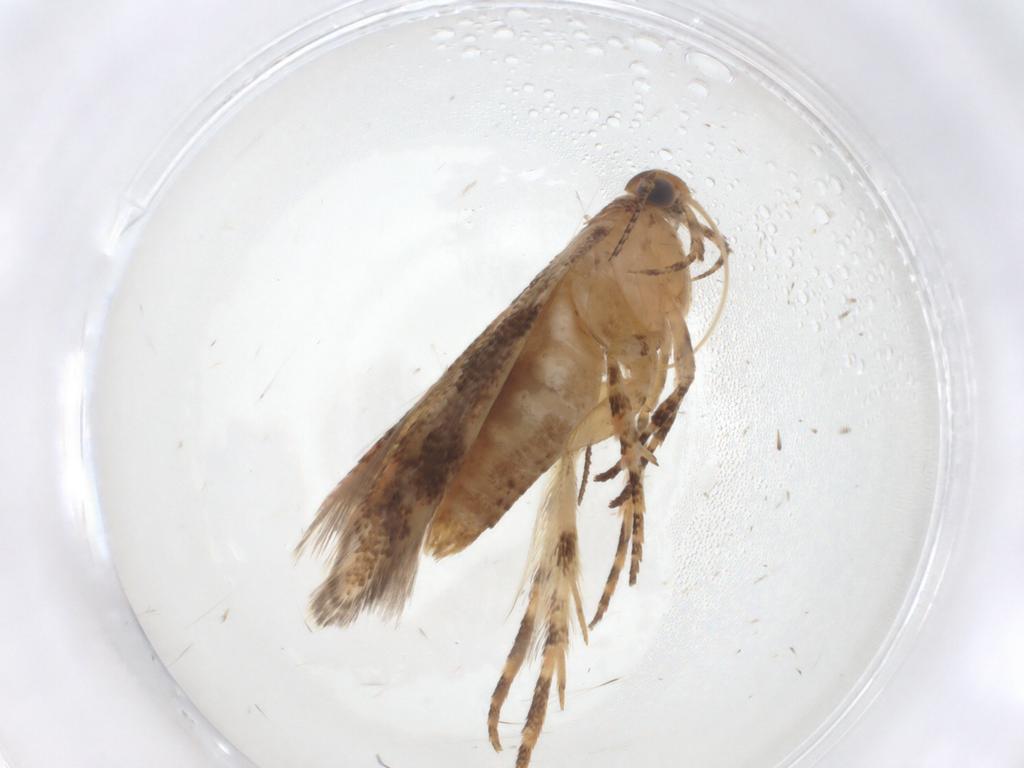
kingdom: Animalia
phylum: Arthropoda
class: Insecta
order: Lepidoptera
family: Gelechiidae
